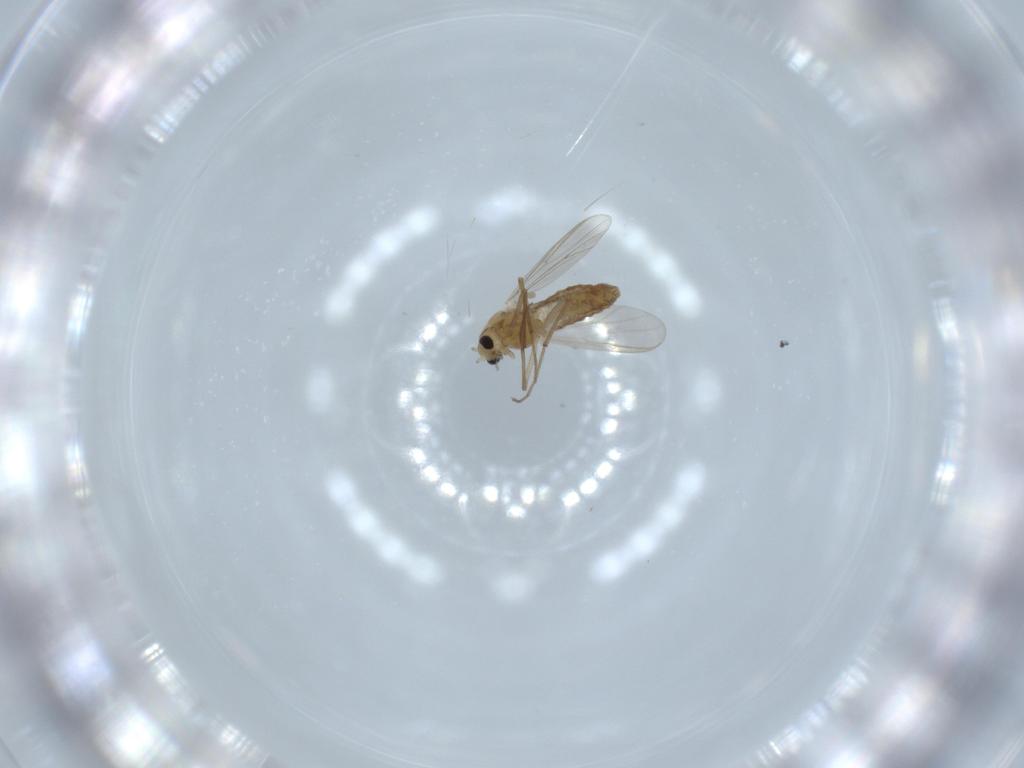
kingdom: Animalia
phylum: Arthropoda
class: Insecta
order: Diptera
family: Chironomidae
